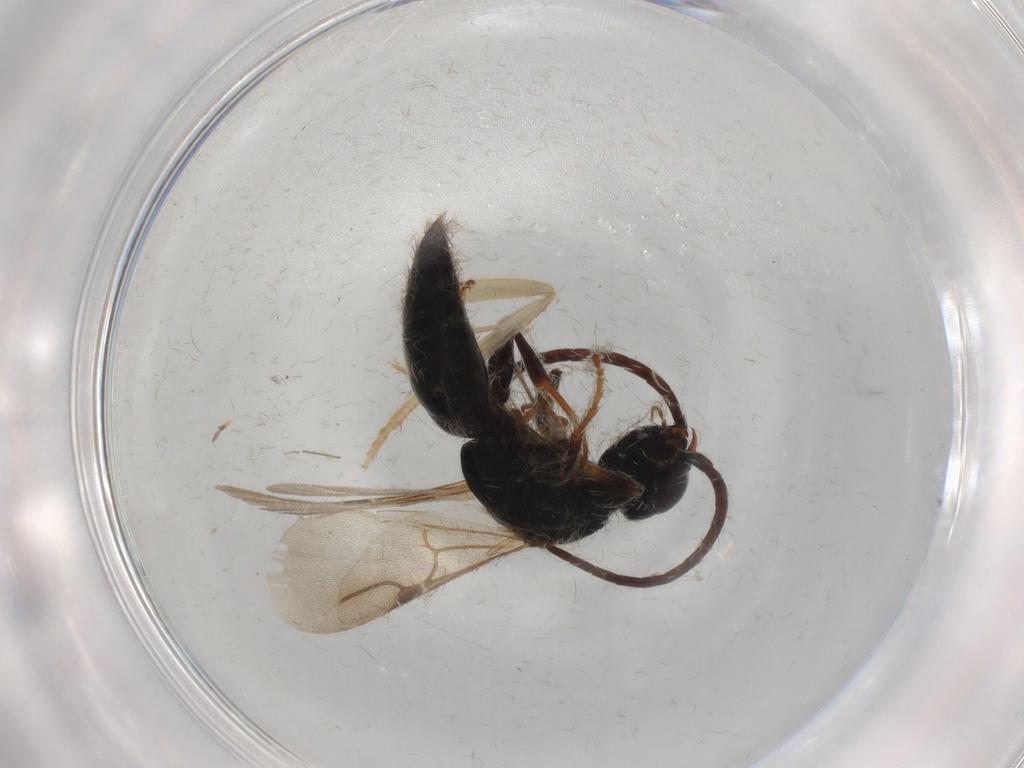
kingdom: Animalia
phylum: Arthropoda
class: Insecta
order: Hymenoptera
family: Bethylidae
